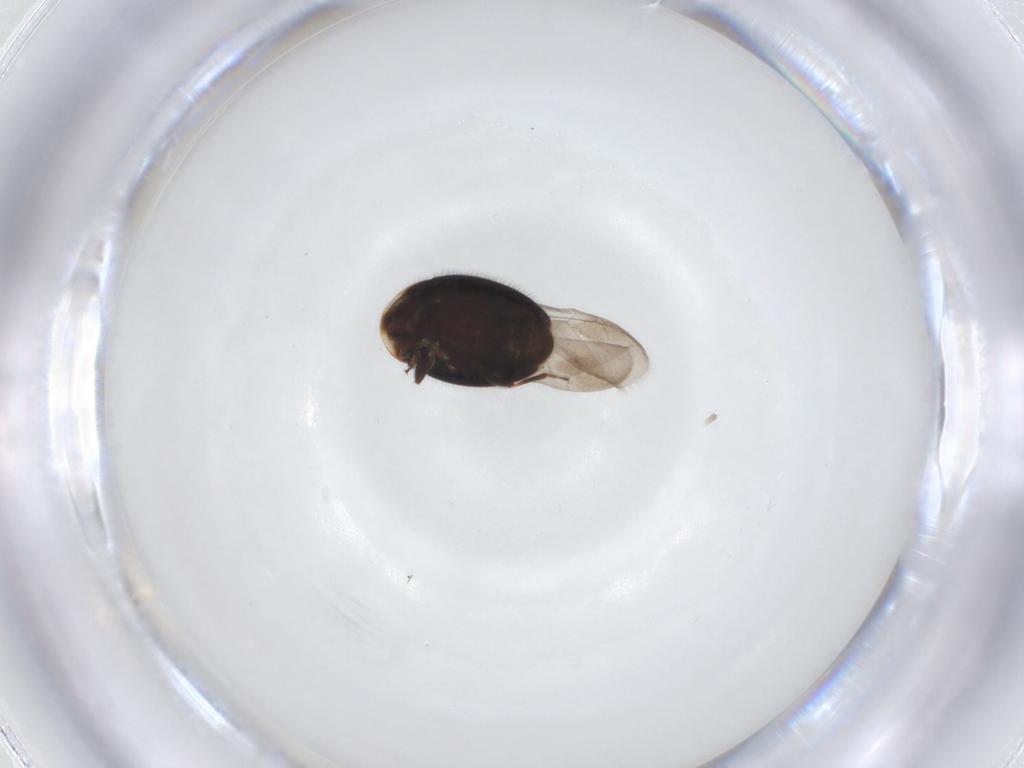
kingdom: Animalia
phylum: Arthropoda
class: Insecta
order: Coleoptera
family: Corylophidae
